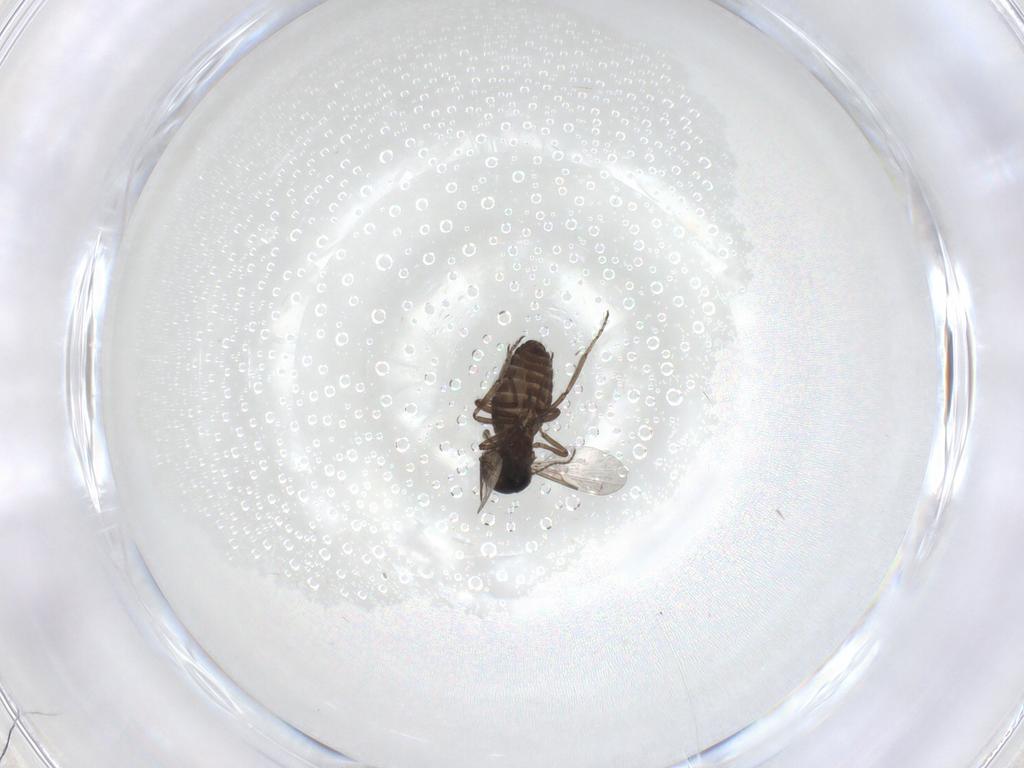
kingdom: Animalia
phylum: Arthropoda
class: Insecta
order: Diptera
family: Ceratopogonidae
